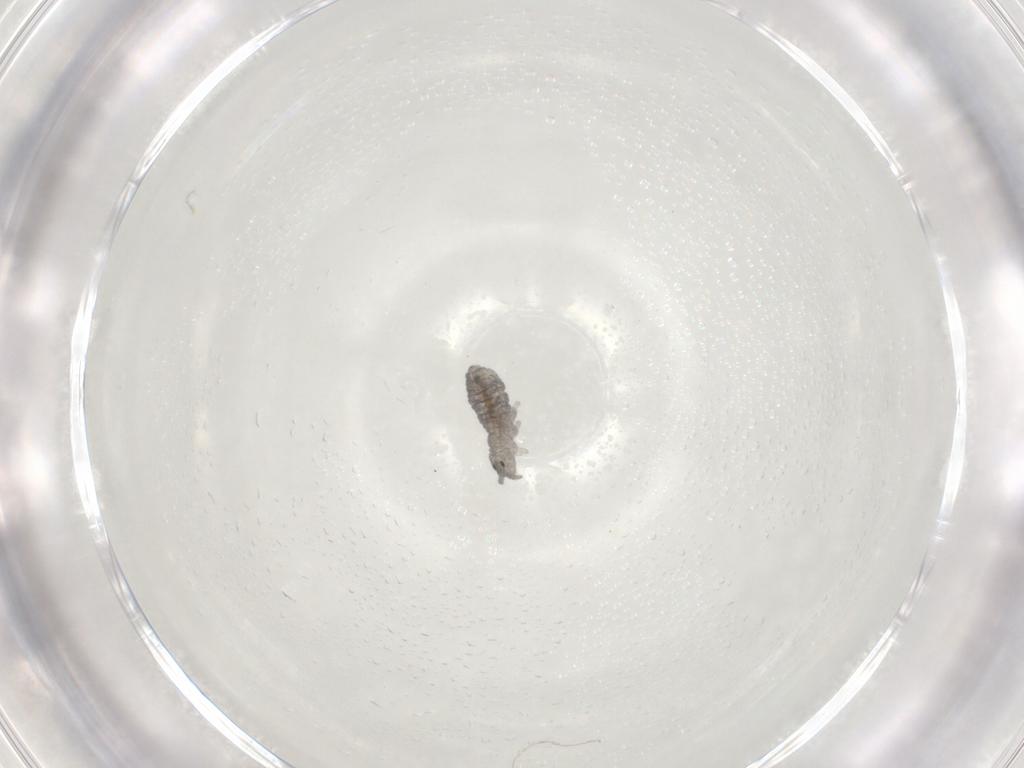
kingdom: Animalia
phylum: Arthropoda
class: Collembola
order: Poduromorpha
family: Hypogastruridae
